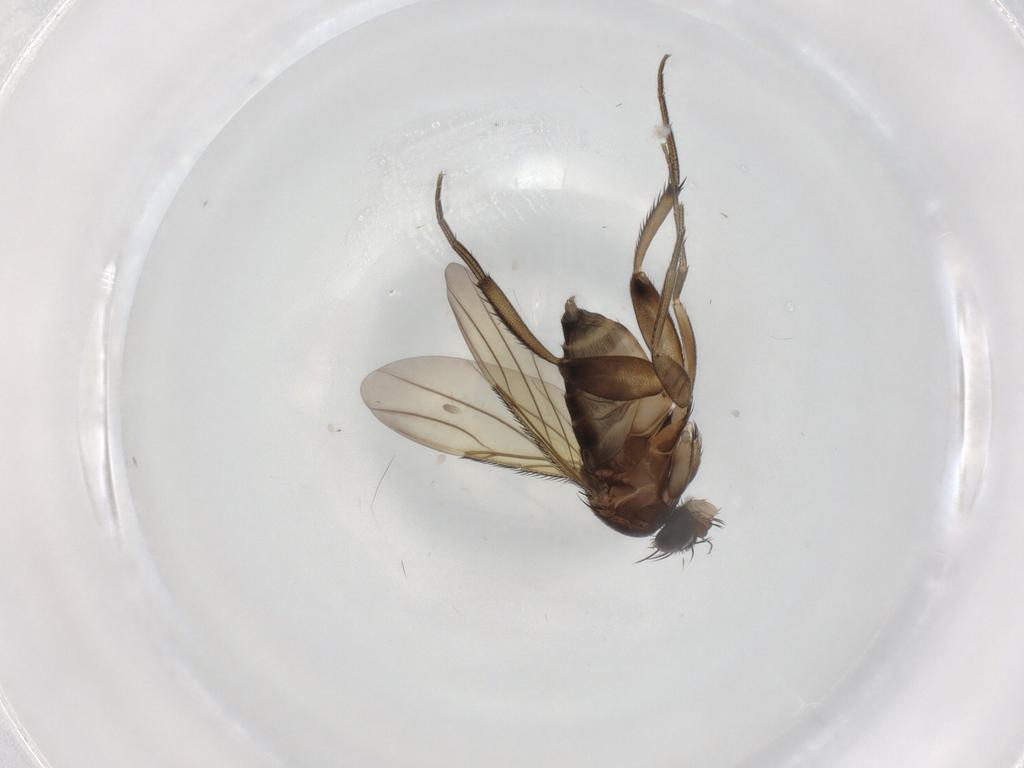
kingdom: Animalia
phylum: Arthropoda
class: Insecta
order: Diptera
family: Phoridae
